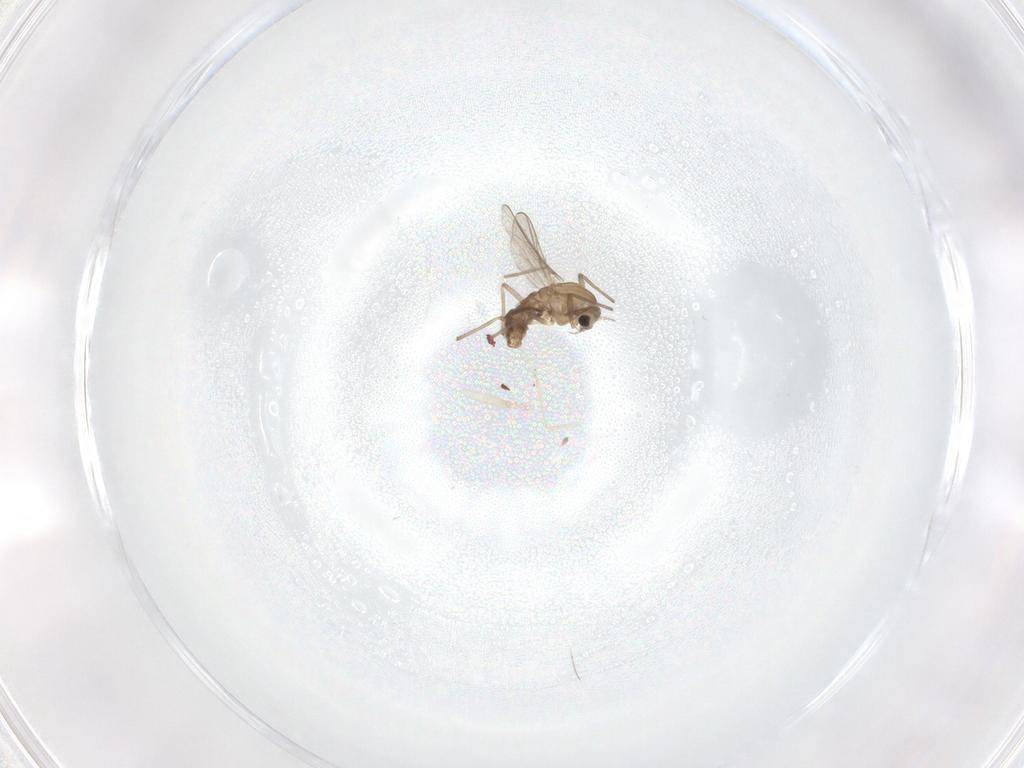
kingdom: Animalia
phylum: Arthropoda
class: Insecta
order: Diptera
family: Chironomidae
